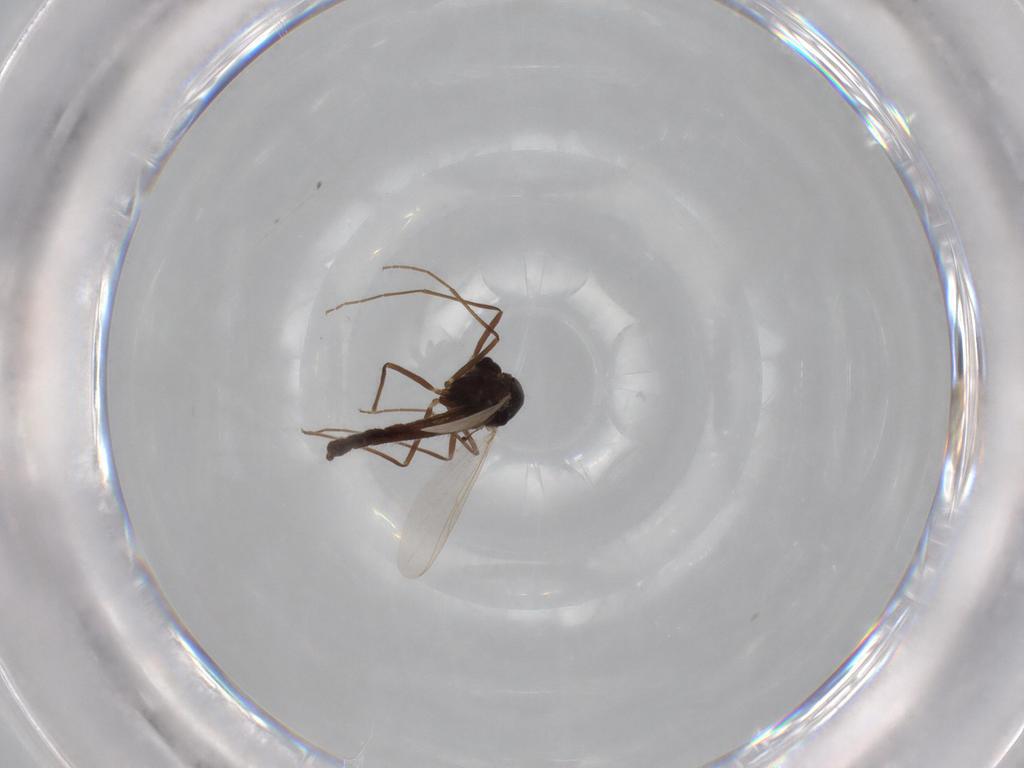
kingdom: Animalia
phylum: Arthropoda
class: Insecta
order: Diptera
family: Chironomidae
